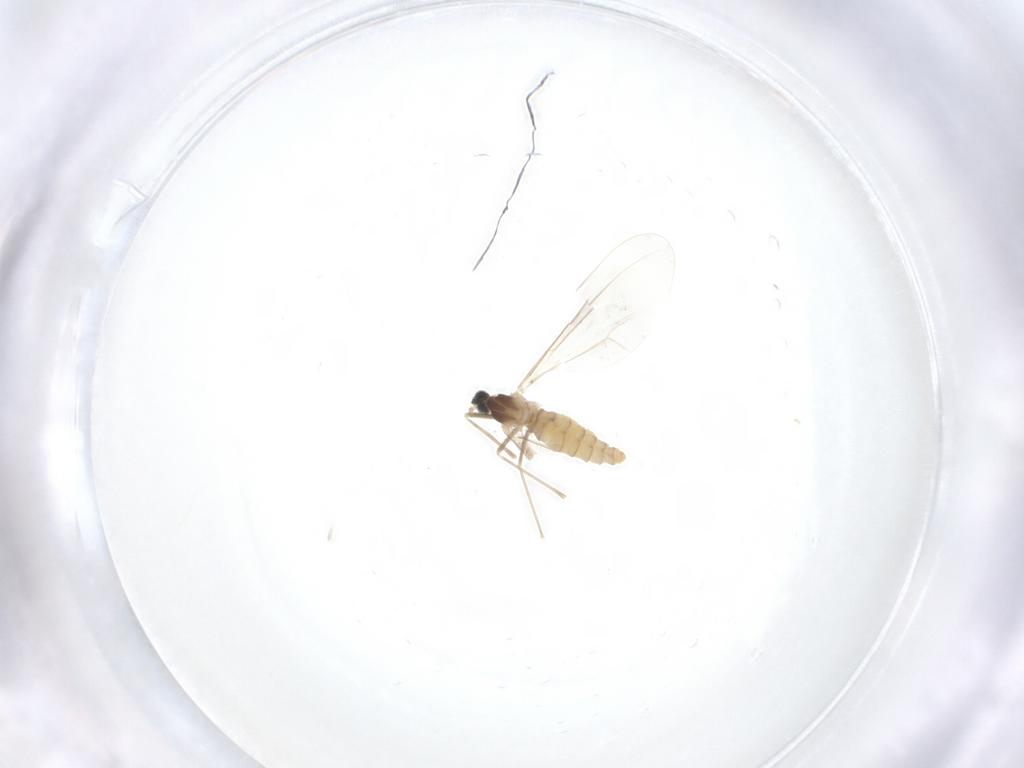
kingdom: Animalia
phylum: Arthropoda
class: Insecta
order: Diptera
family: Cecidomyiidae
